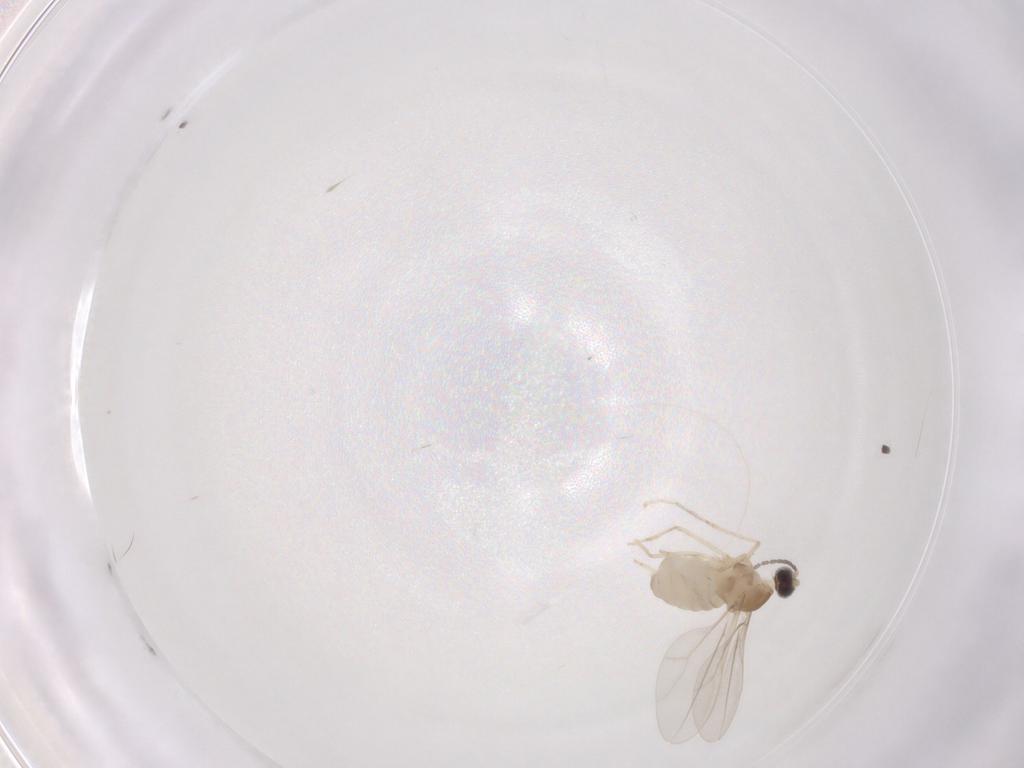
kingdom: Animalia
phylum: Arthropoda
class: Insecta
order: Diptera
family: Cecidomyiidae
